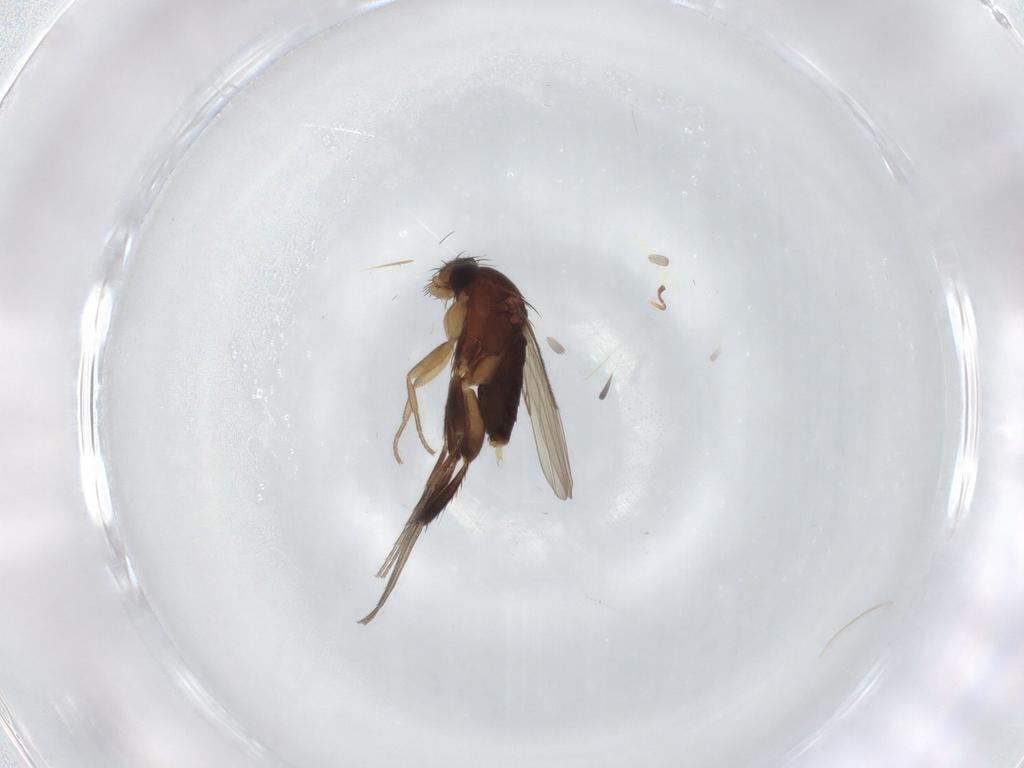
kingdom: Animalia
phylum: Arthropoda
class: Insecta
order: Diptera
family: Phoridae
